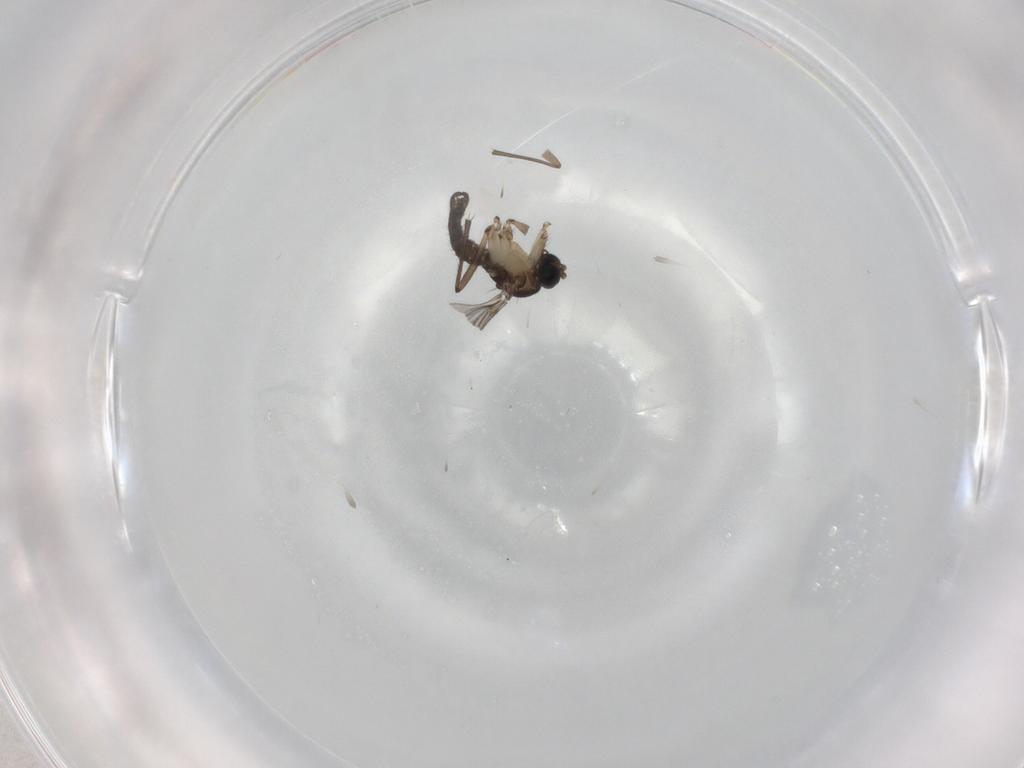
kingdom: Animalia
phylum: Arthropoda
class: Insecta
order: Diptera
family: Sciaridae
